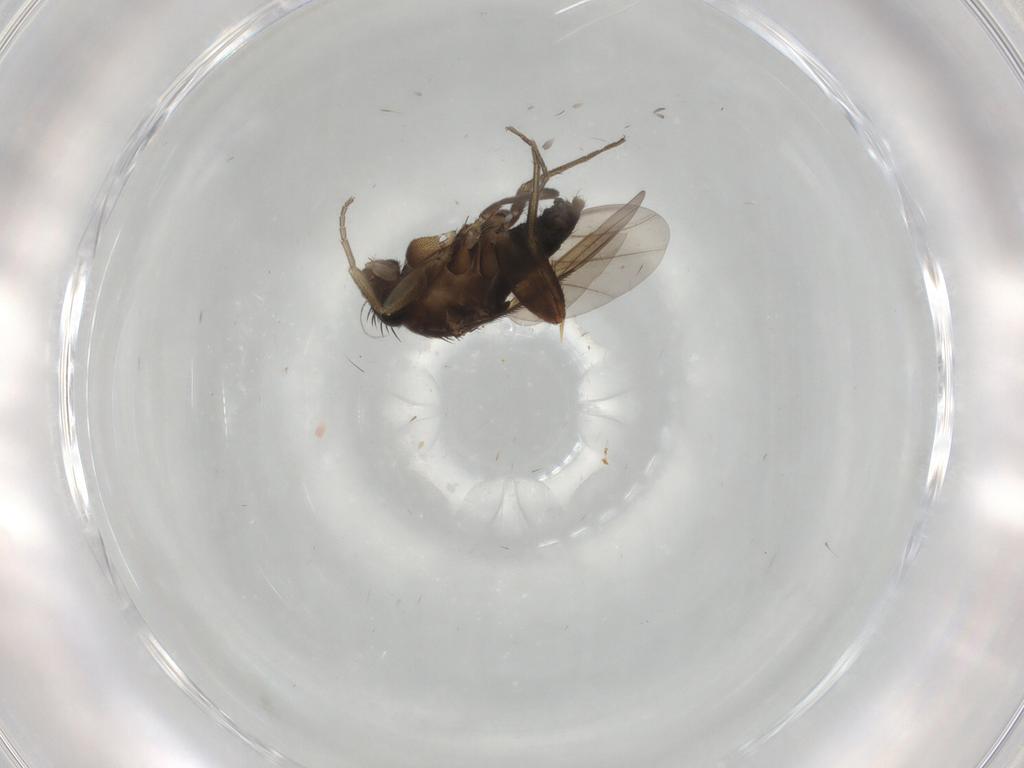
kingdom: Animalia
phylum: Arthropoda
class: Insecta
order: Diptera
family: Phoridae
